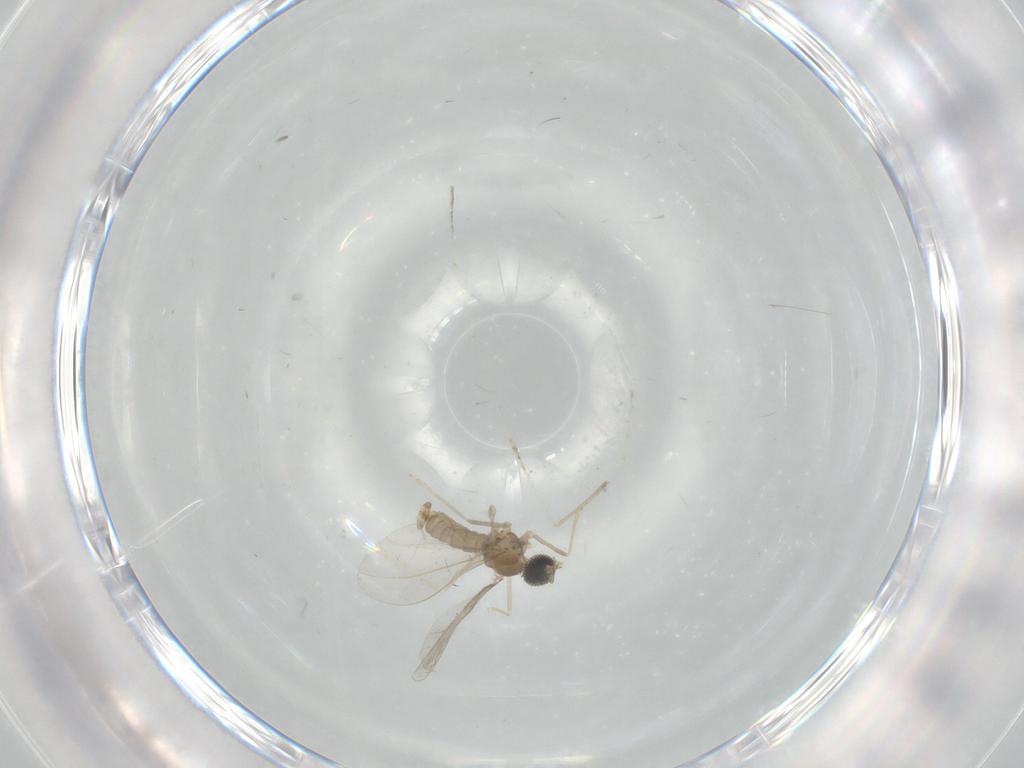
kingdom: Animalia
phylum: Arthropoda
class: Insecta
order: Diptera
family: Cecidomyiidae
